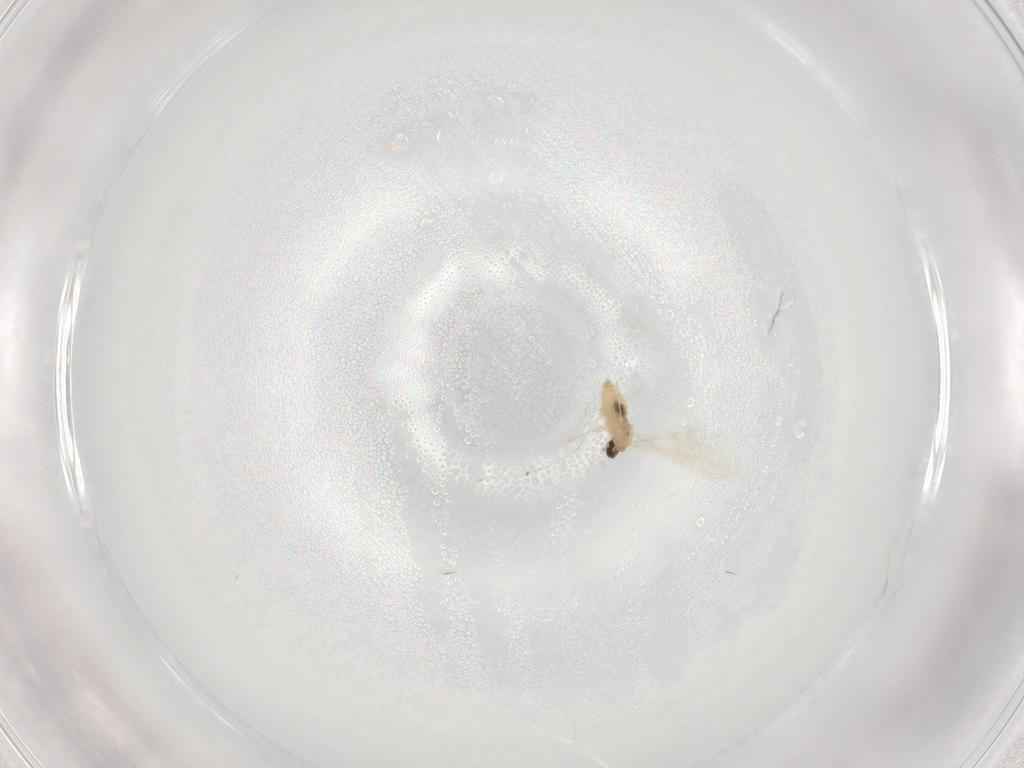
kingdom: Animalia
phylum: Arthropoda
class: Insecta
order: Diptera
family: Cecidomyiidae
